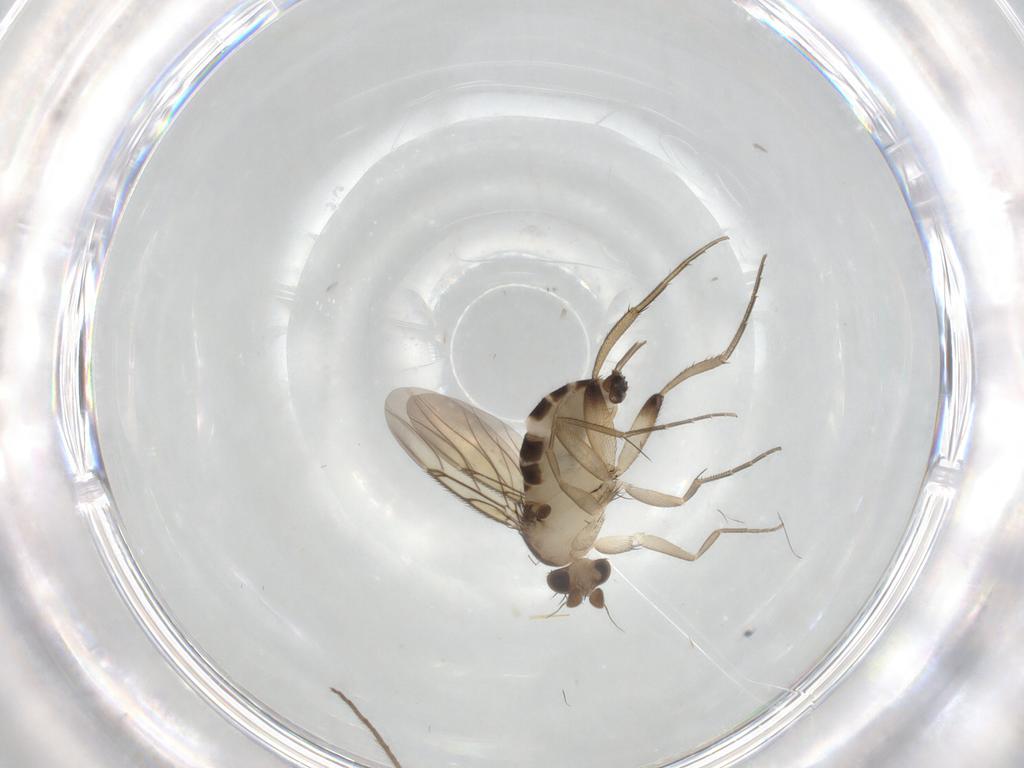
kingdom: Animalia
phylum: Arthropoda
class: Insecta
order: Diptera
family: Phoridae
